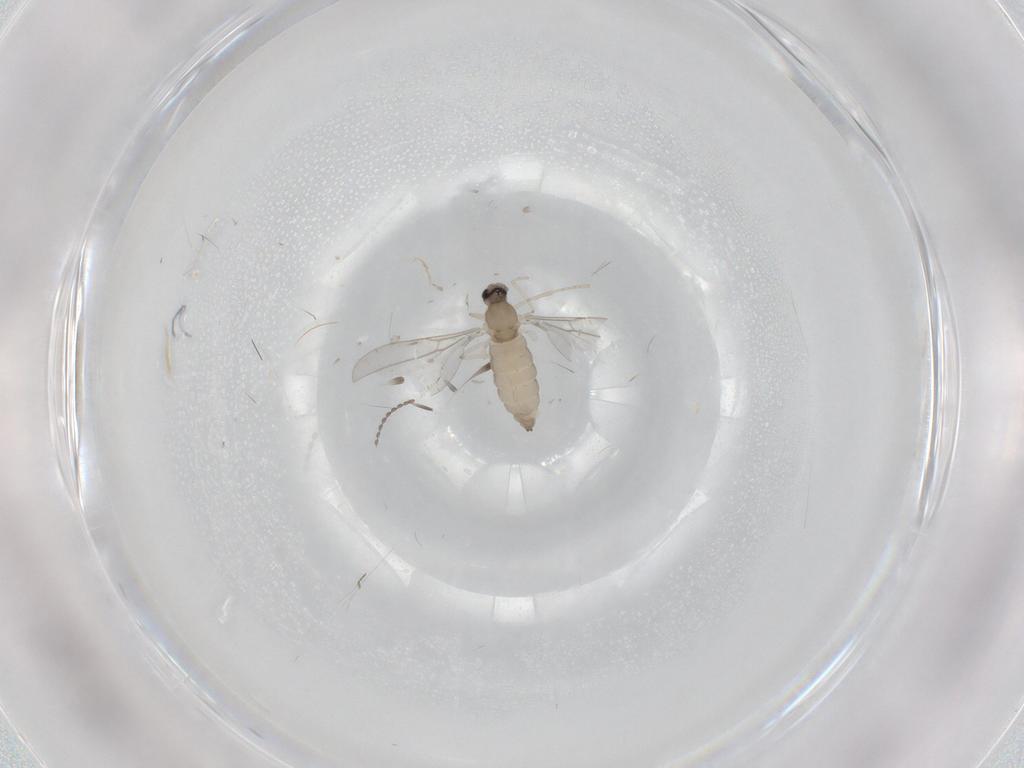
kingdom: Animalia
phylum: Arthropoda
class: Insecta
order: Diptera
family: Cecidomyiidae
